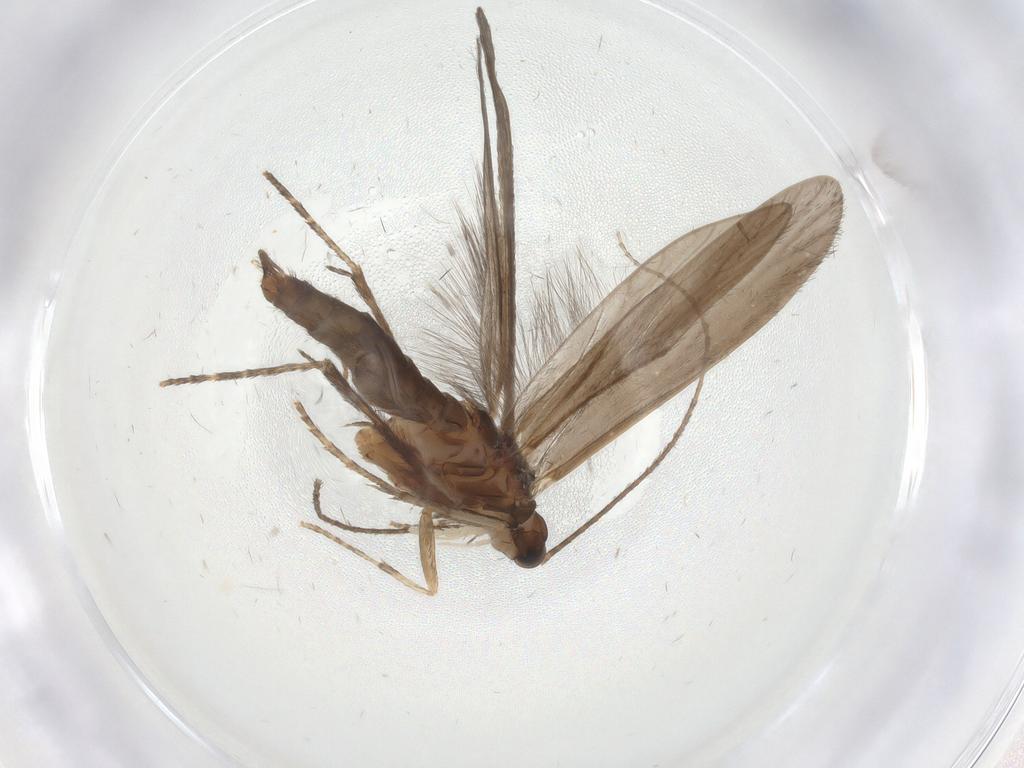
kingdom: Animalia
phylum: Arthropoda
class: Insecta
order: Trichoptera
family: Xiphocentronidae
